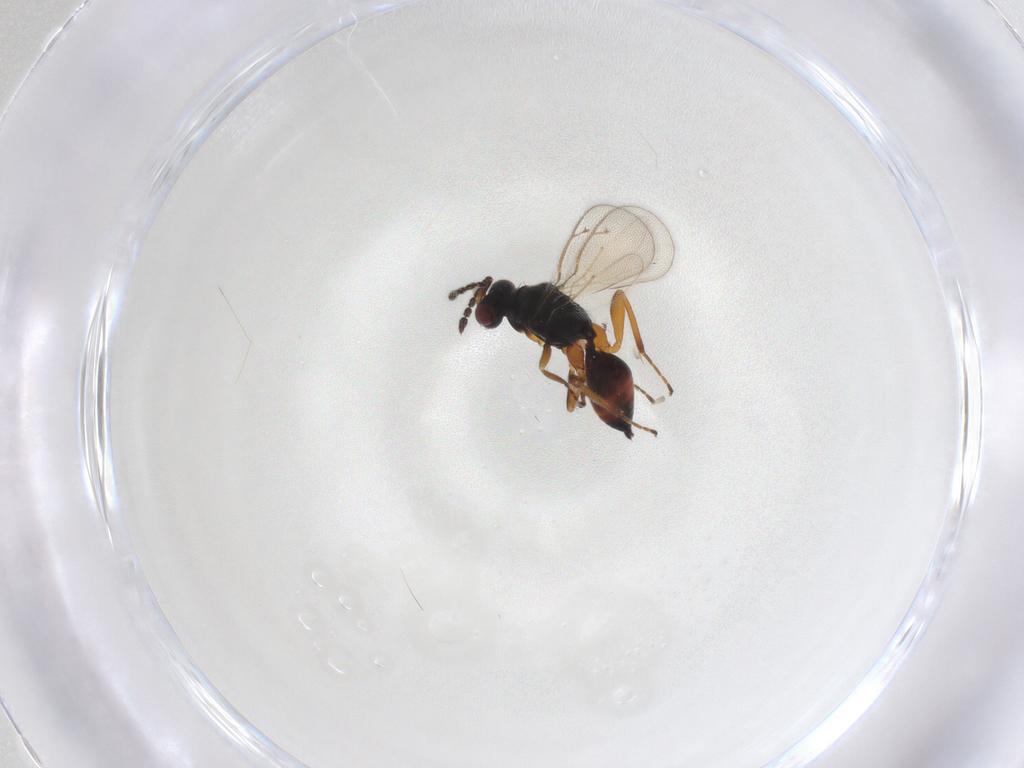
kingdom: Animalia
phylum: Arthropoda
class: Insecta
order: Hymenoptera
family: Eulophidae
